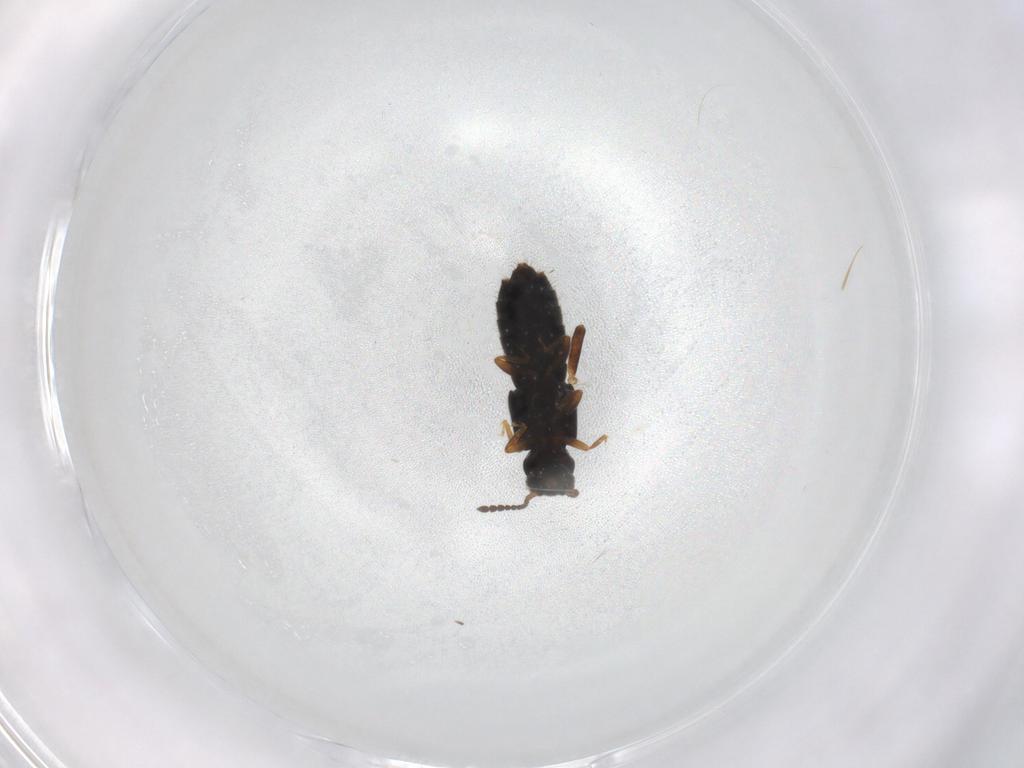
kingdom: Animalia
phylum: Arthropoda
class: Insecta
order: Coleoptera
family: Staphylinidae
